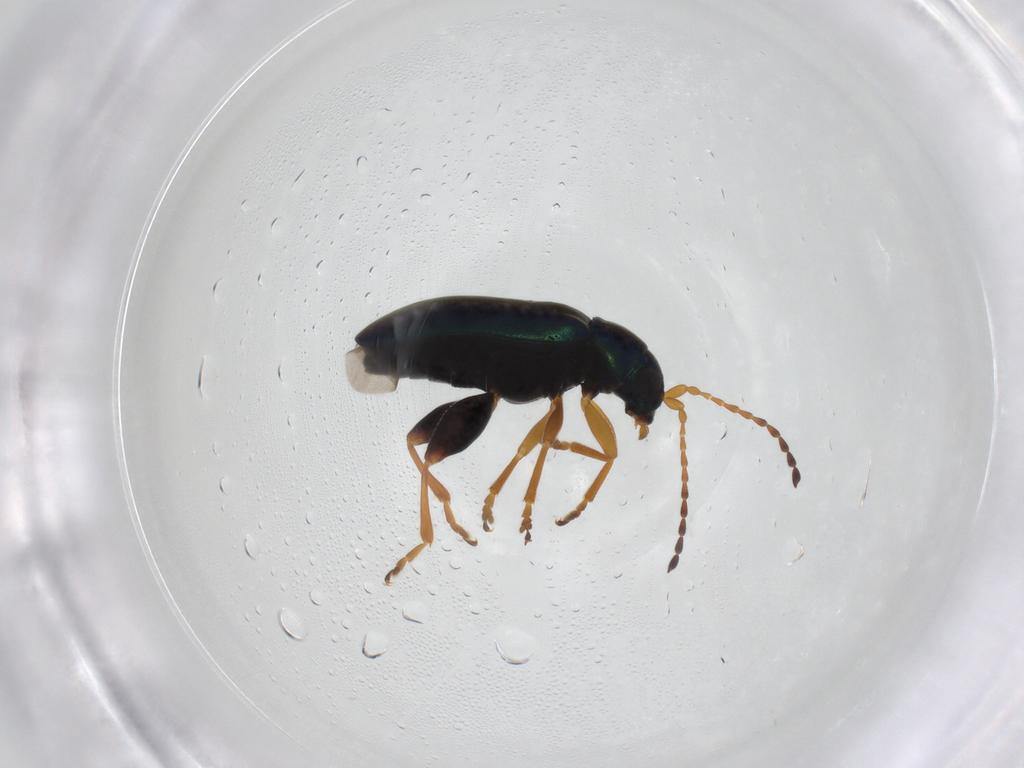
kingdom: Animalia
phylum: Arthropoda
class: Insecta
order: Coleoptera
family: Chrysomelidae
